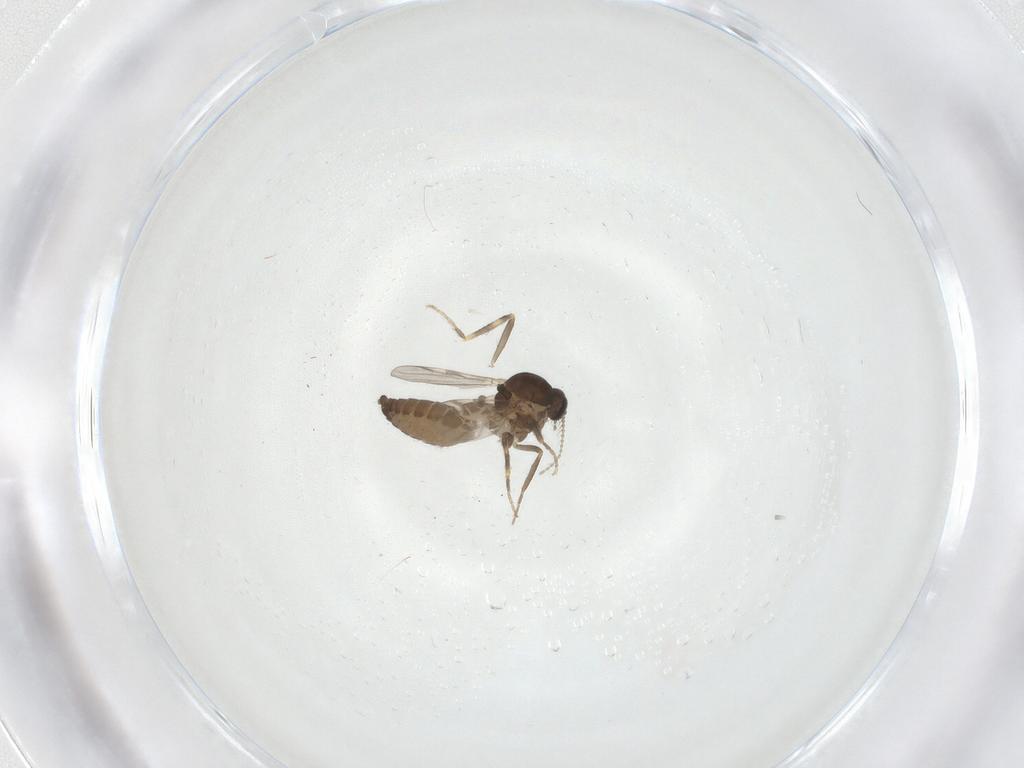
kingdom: Animalia
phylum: Arthropoda
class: Insecta
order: Diptera
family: Ceratopogonidae
